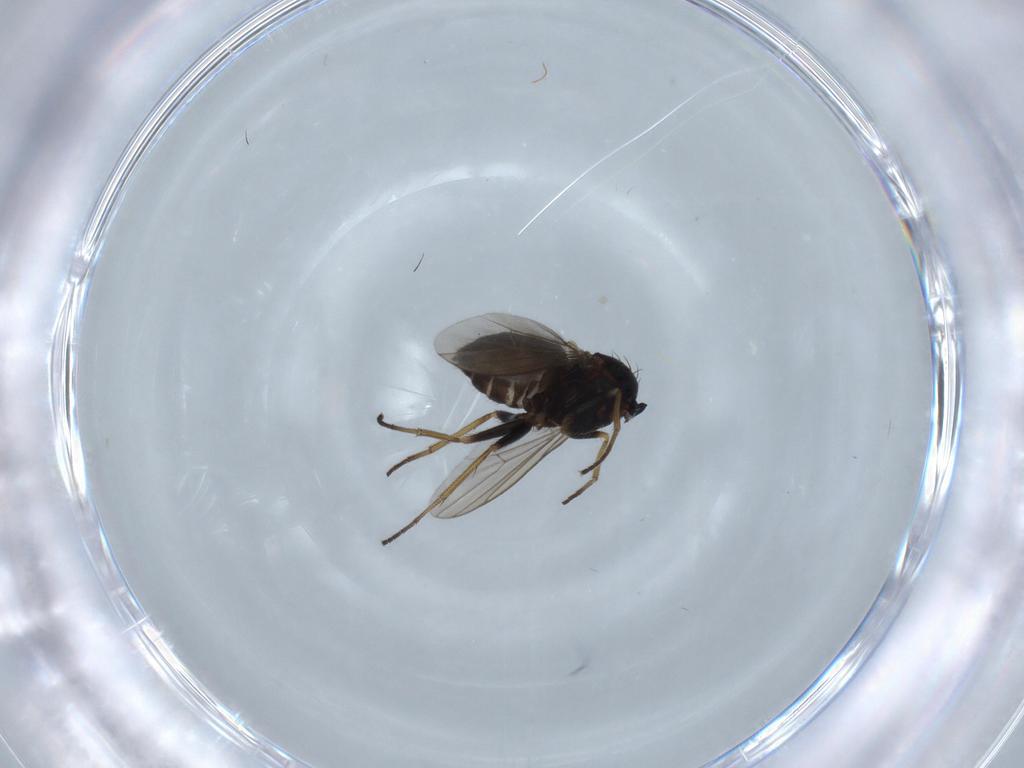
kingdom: Animalia
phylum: Arthropoda
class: Insecta
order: Diptera
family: Dolichopodidae
